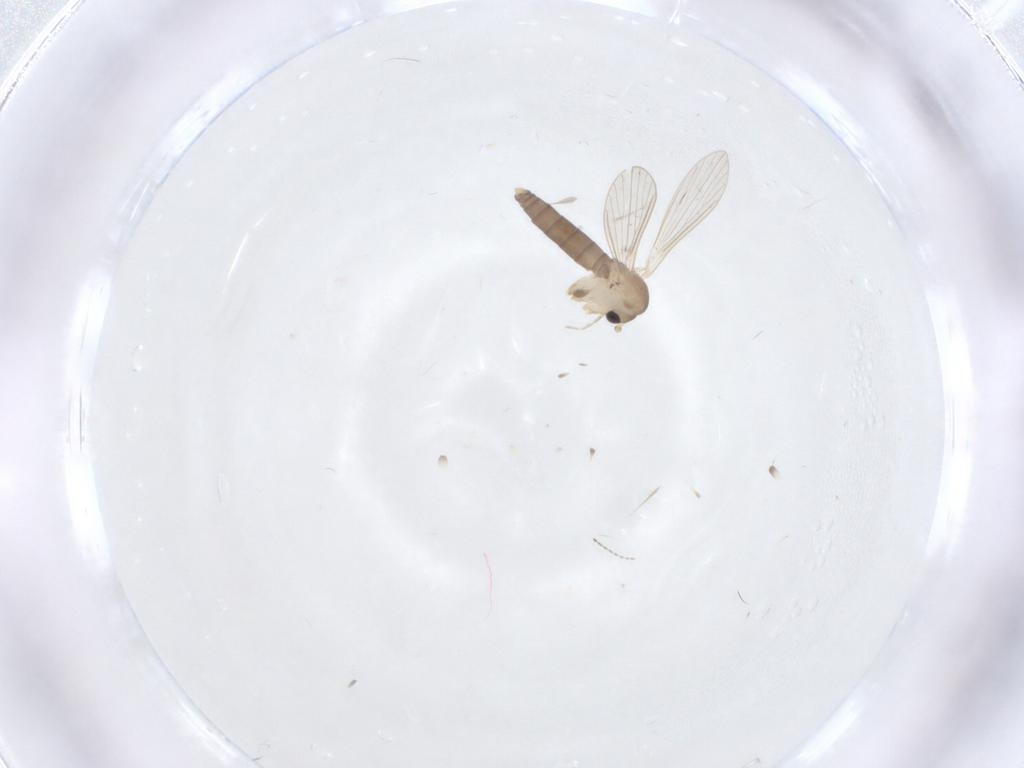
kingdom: Animalia
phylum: Arthropoda
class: Insecta
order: Diptera
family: Psychodidae
